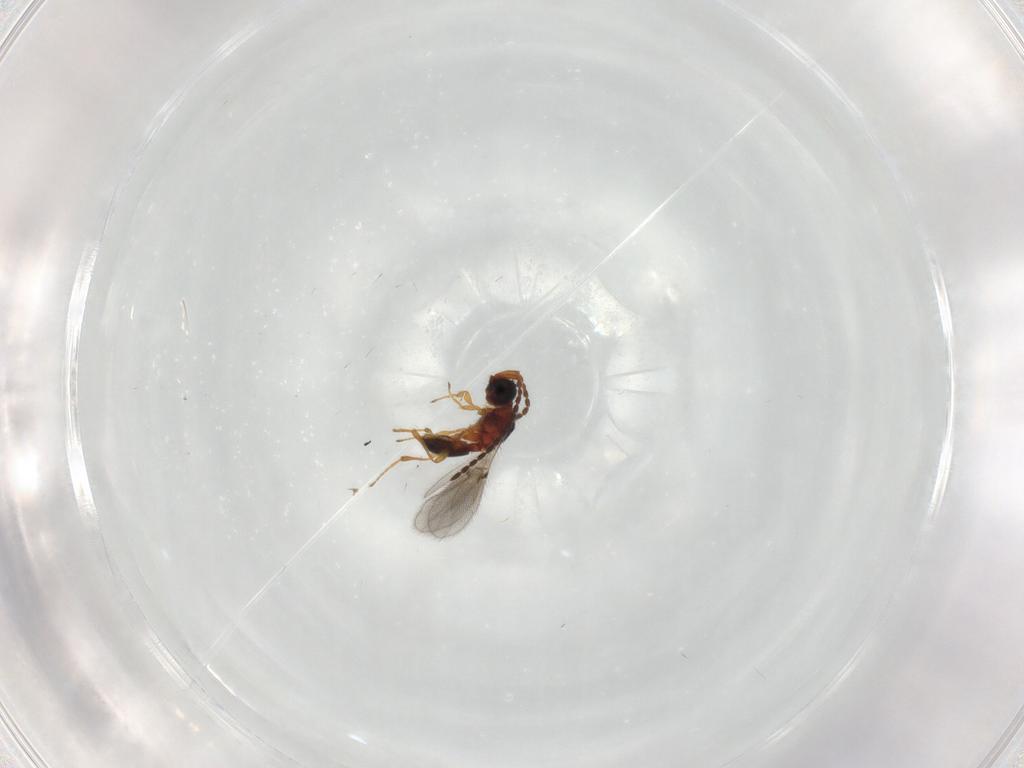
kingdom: Animalia
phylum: Arthropoda
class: Insecta
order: Hymenoptera
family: Diapriidae
